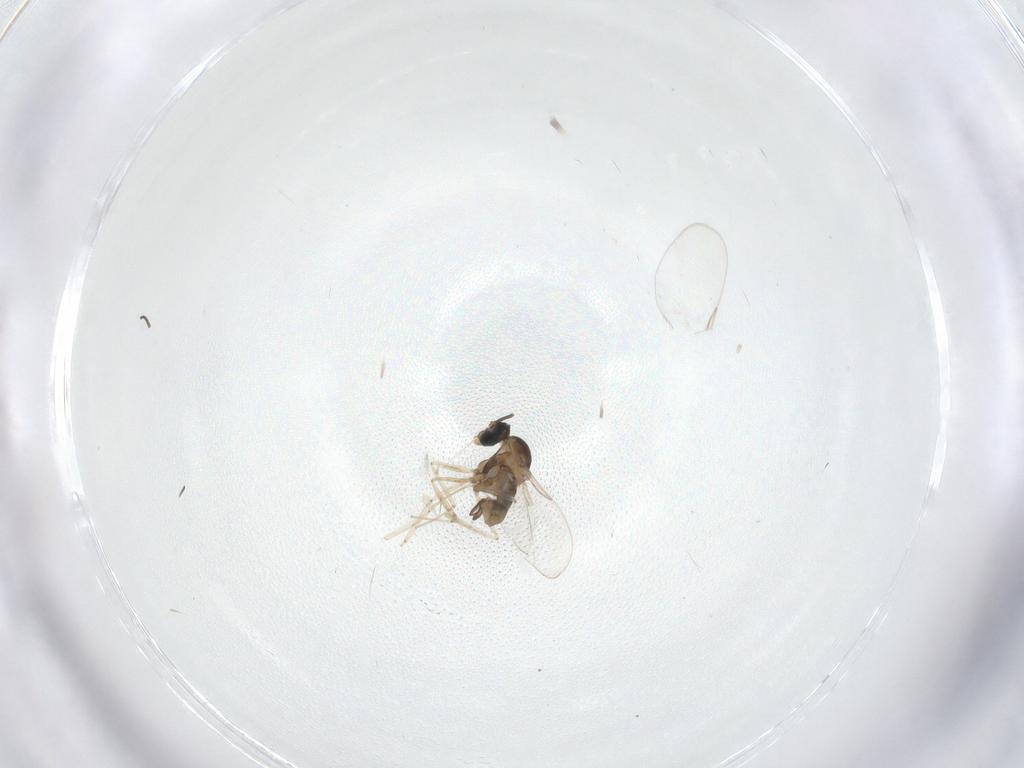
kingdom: Animalia
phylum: Arthropoda
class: Insecta
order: Diptera
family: Cecidomyiidae
